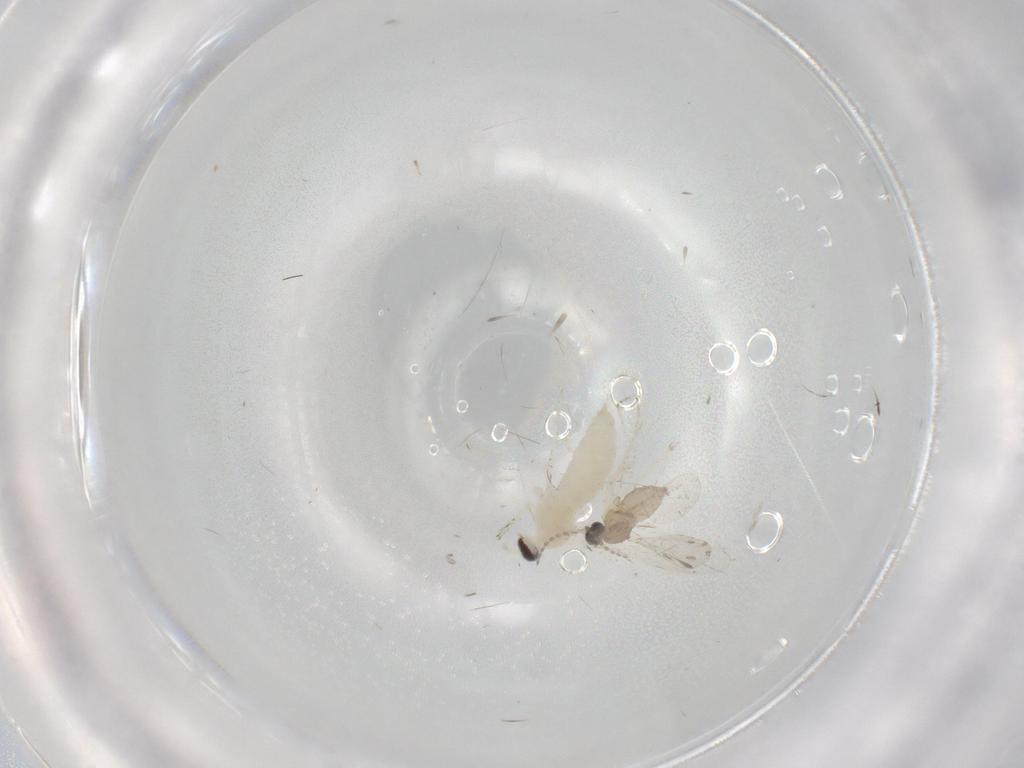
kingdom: Animalia
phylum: Arthropoda
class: Insecta
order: Diptera
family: Cecidomyiidae
